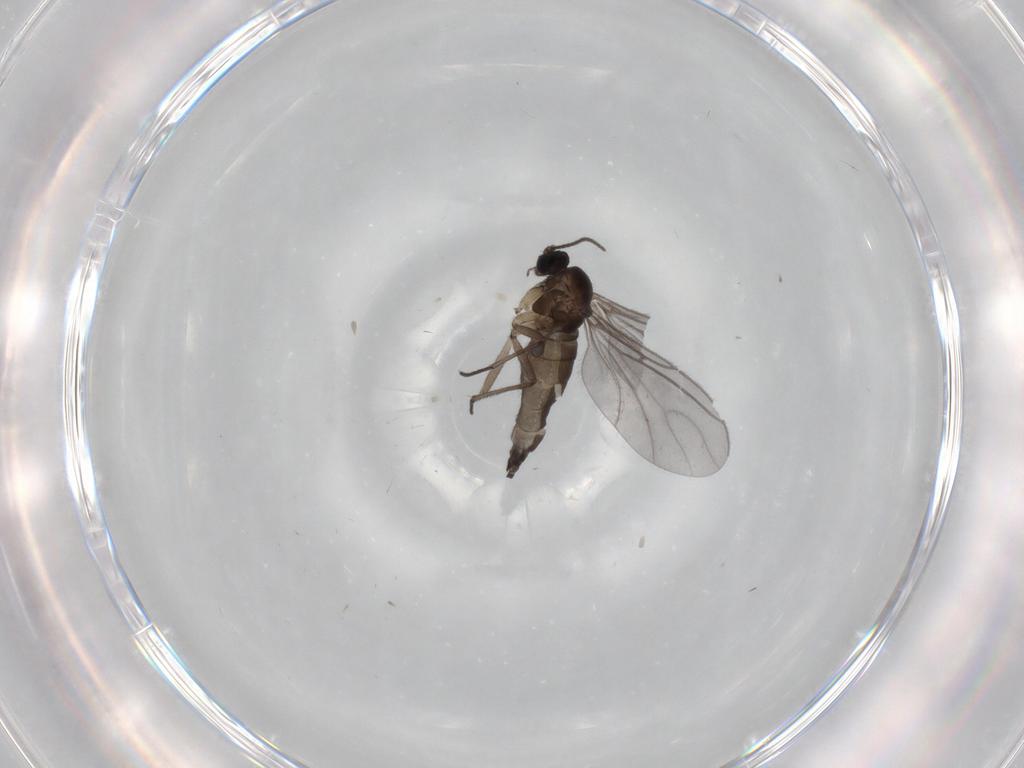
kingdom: Animalia
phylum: Arthropoda
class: Insecta
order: Diptera
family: Sciaridae
